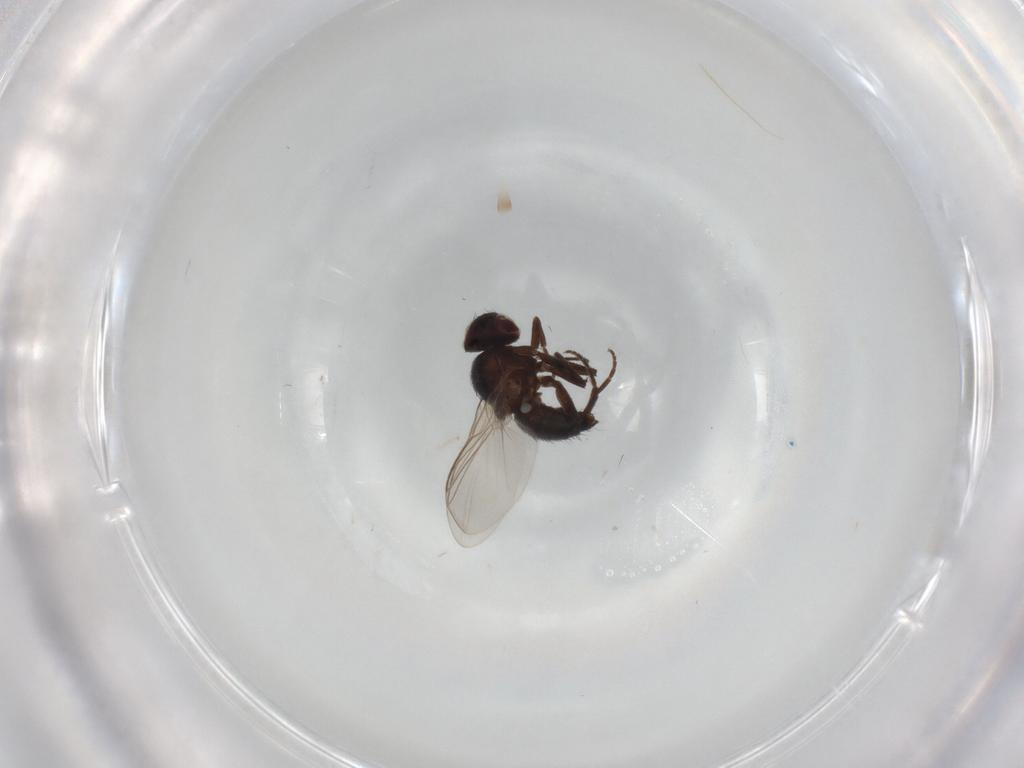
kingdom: Animalia
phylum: Arthropoda
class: Insecta
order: Diptera
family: Agromyzidae
